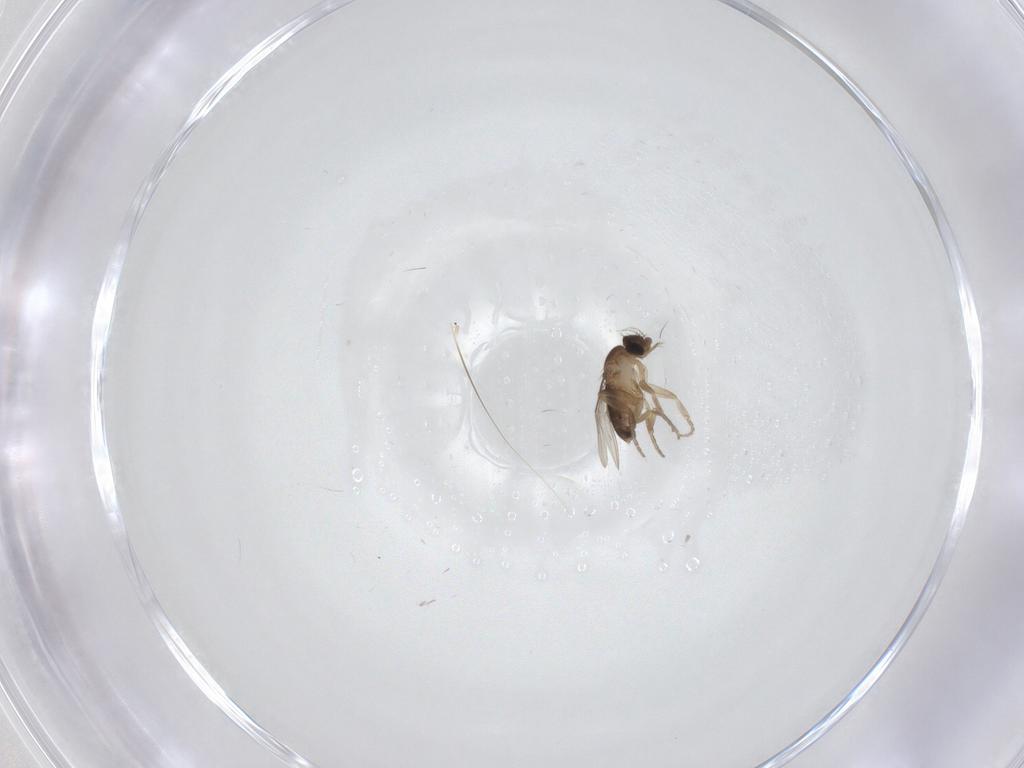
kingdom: Animalia
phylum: Arthropoda
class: Insecta
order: Diptera
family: Phoridae
